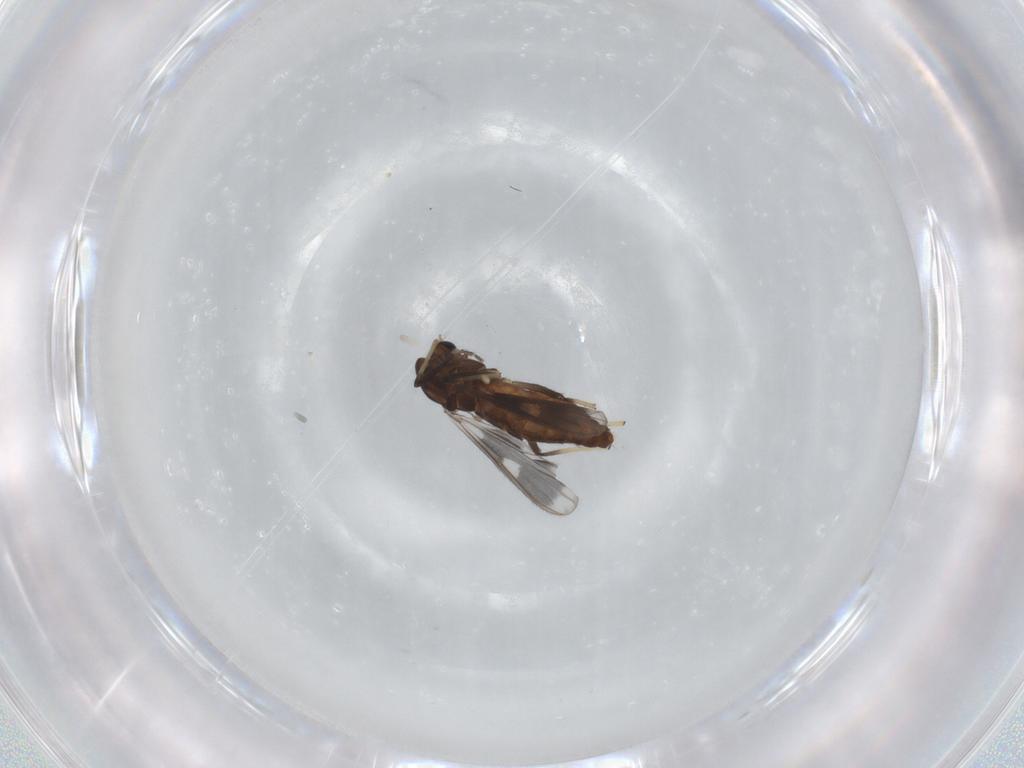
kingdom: Animalia
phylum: Arthropoda
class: Insecta
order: Diptera
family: Chironomidae
